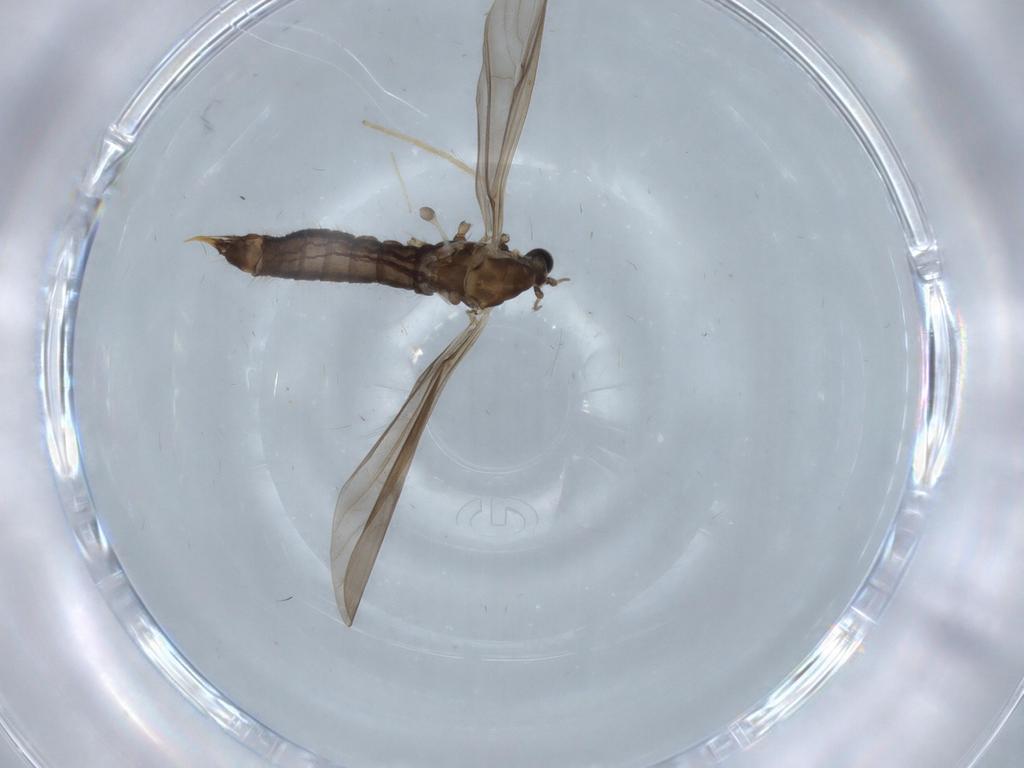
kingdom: Animalia
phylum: Arthropoda
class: Insecta
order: Diptera
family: Limoniidae
